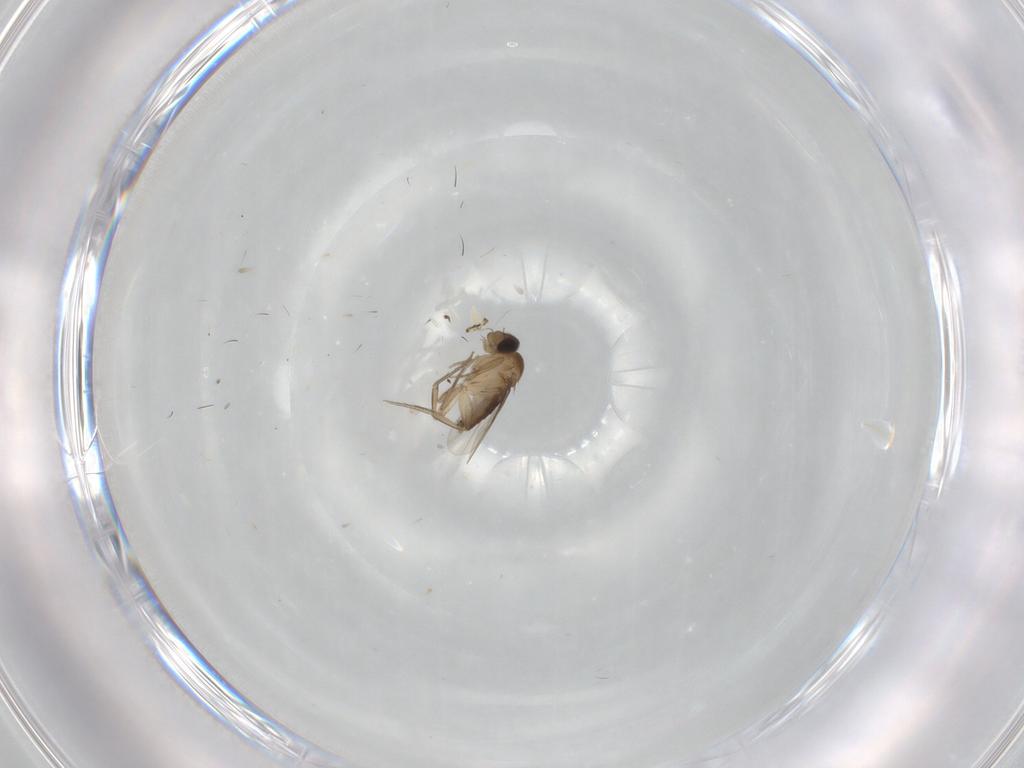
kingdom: Animalia
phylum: Arthropoda
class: Insecta
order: Diptera
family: Phoridae
